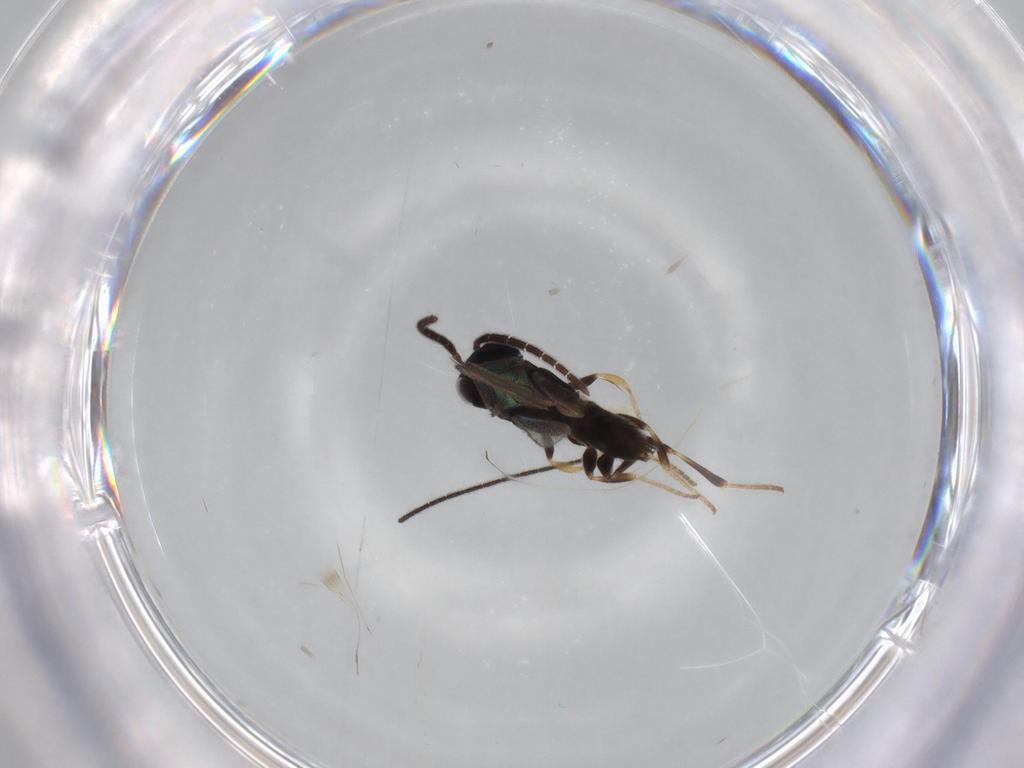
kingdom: Animalia
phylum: Arthropoda
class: Insecta
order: Hymenoptera
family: Dryinidae
